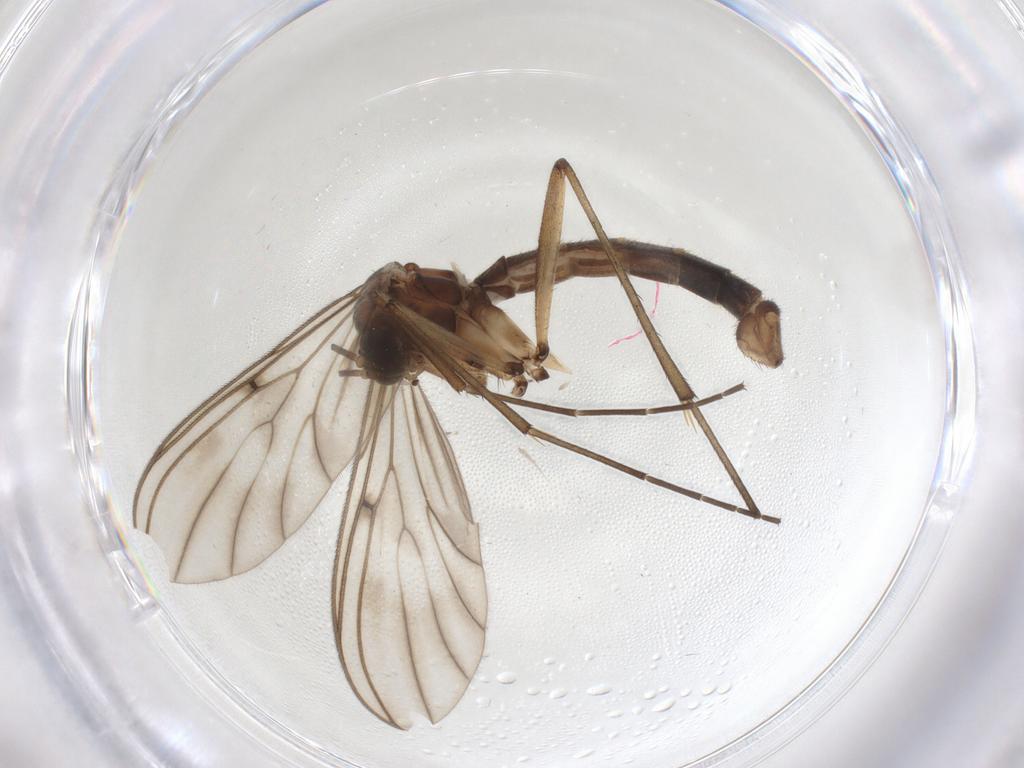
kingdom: Animalia
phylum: Arthropoda
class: Insecta
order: Diptera
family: Mycetophilidae
